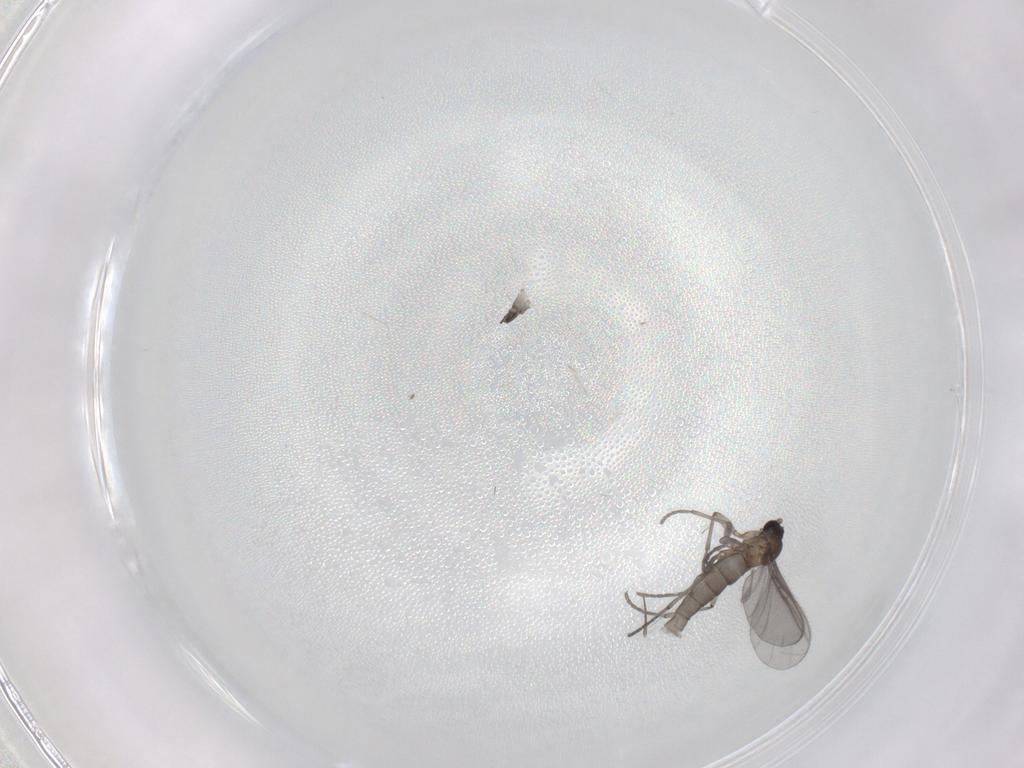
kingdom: Animalia
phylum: Arthropoda
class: Insecta
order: Diptera
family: Sciaridae
